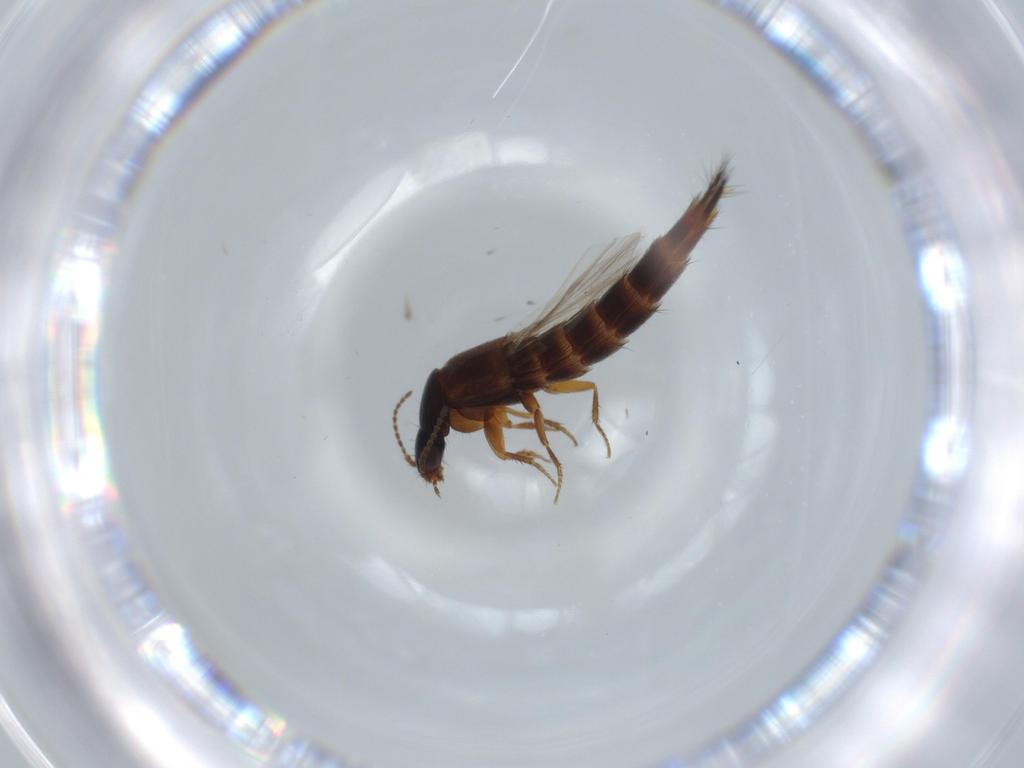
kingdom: Animalia
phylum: Arthropoda
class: Insecta
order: Coleoptera
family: Staphylinidae
